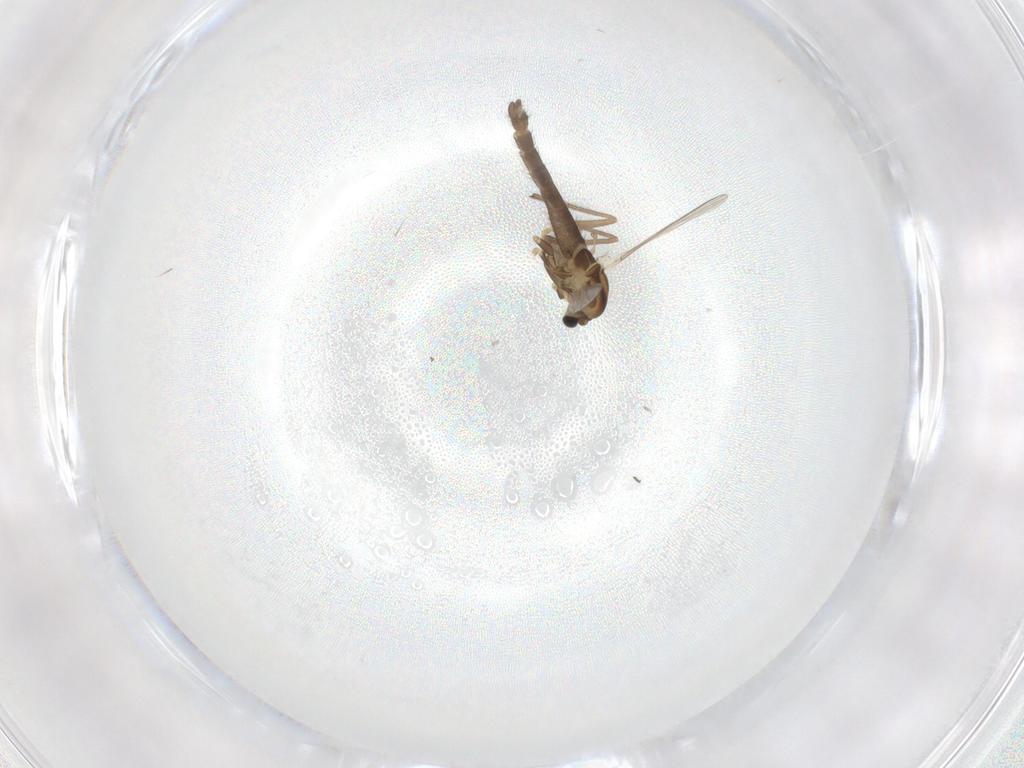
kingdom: Animalia
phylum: Arthropoda
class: Insecta
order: Diptera
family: Chironomidae
